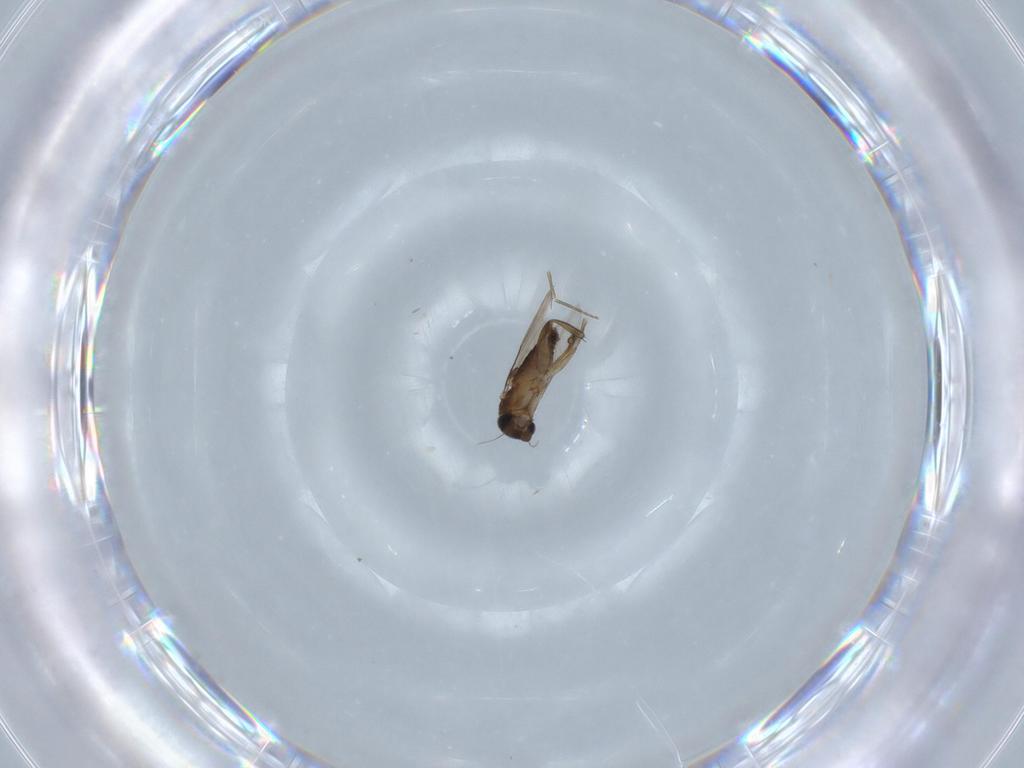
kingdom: Animalia
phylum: Arthropoda
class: Insecta
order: Diptera
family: Phoridae
